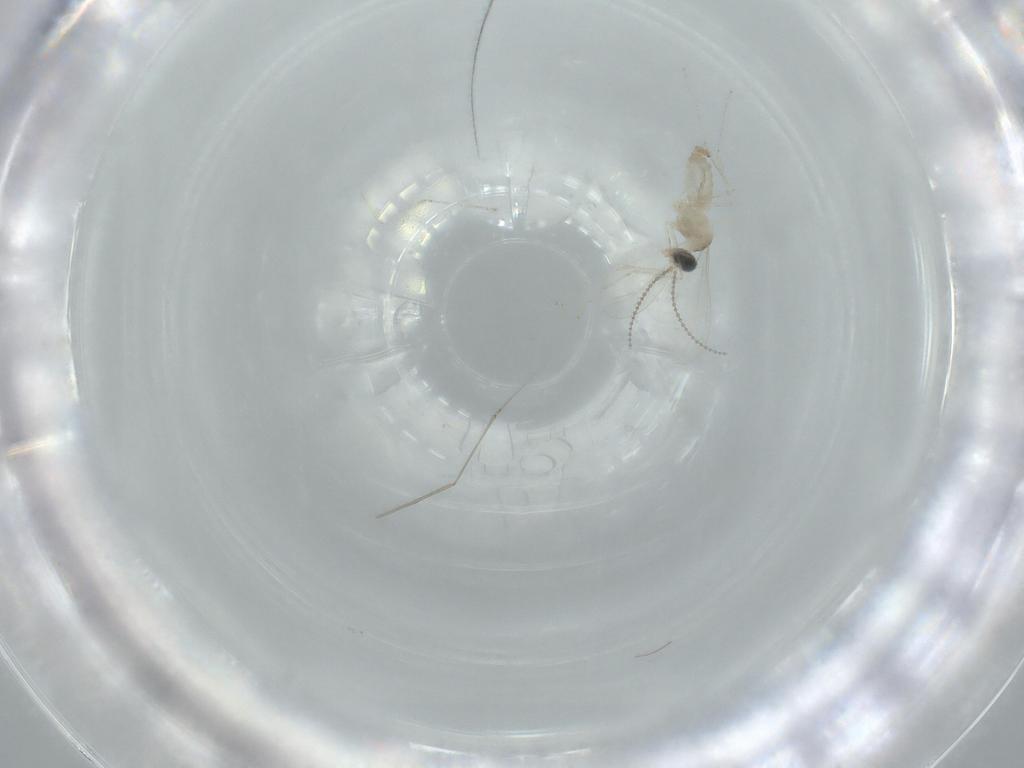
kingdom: Animalia
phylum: Arthropoda
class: Insecta
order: Diptera
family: Cecidomyiidae
